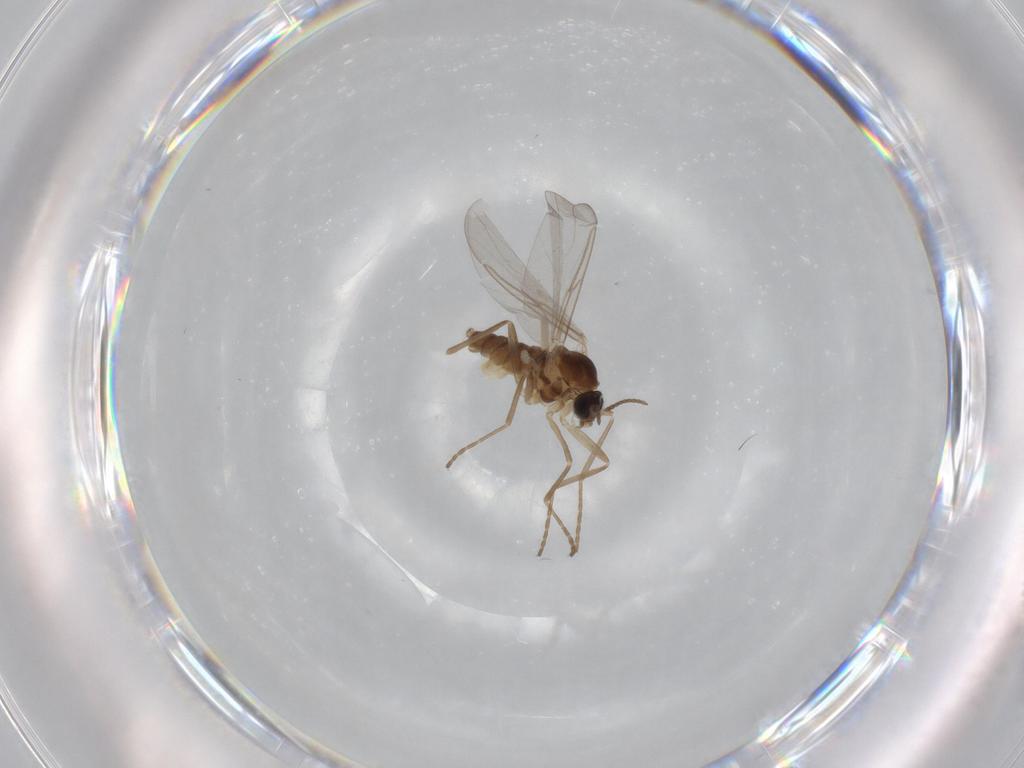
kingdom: Animalia
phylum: Arthropoda
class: Insecta
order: Diptera
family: Cecidomyiidae
